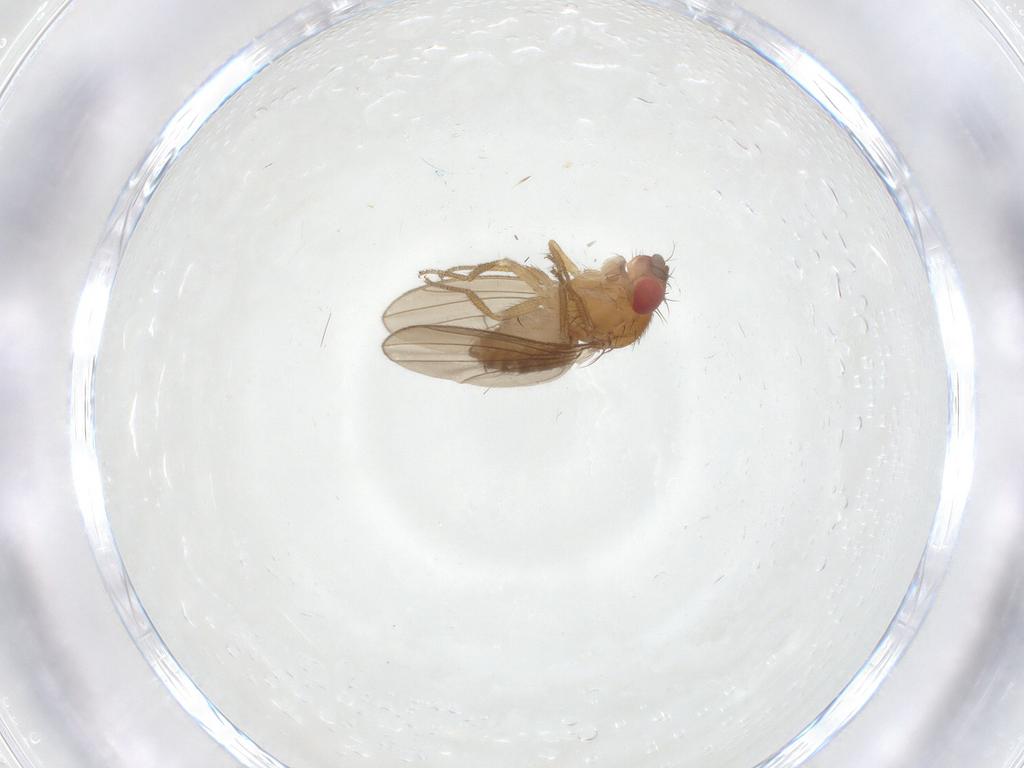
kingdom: Animalia
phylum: Arthropoda
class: Insecta
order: Diptera
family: Drosophilidae
